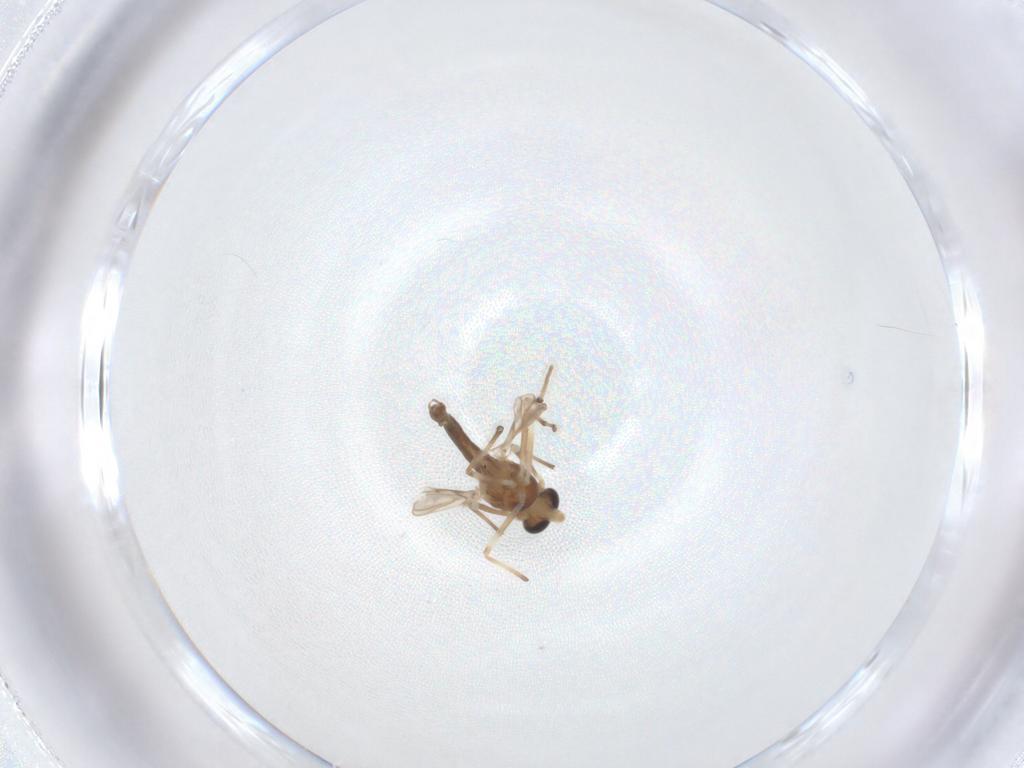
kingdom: Animalia
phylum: Arthropoda
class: Insecta
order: Diptera
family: Chironomidae
